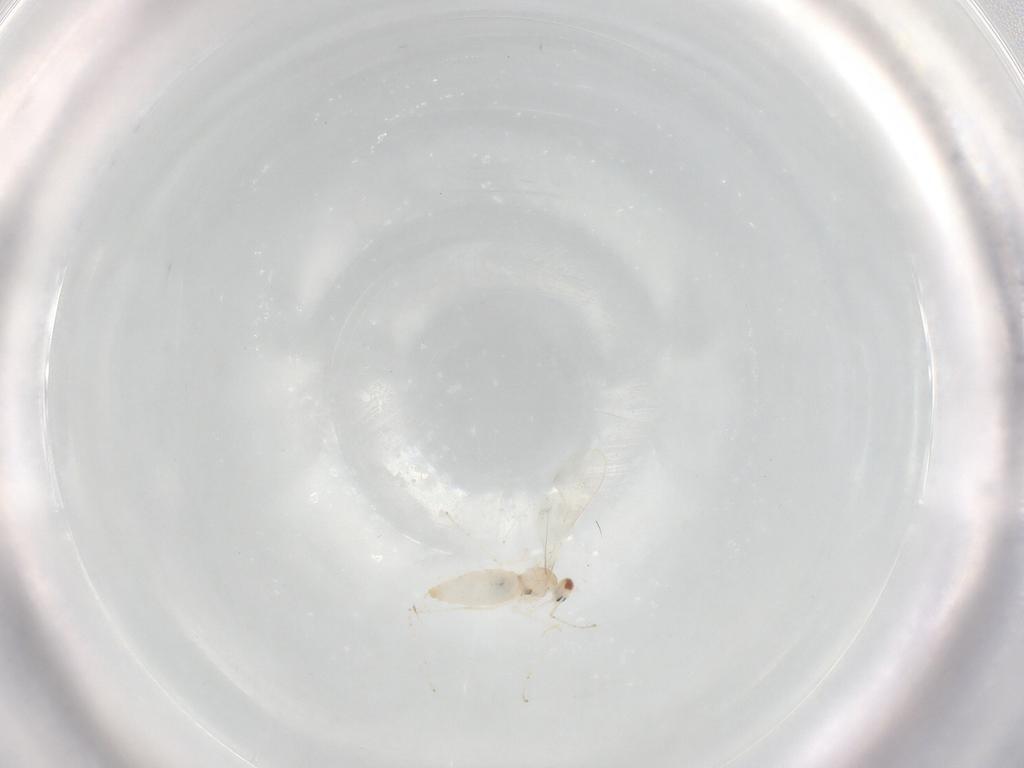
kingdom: Animalia
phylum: Arthropoda
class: Insecta
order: Diptera
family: Cecidomyiidae
